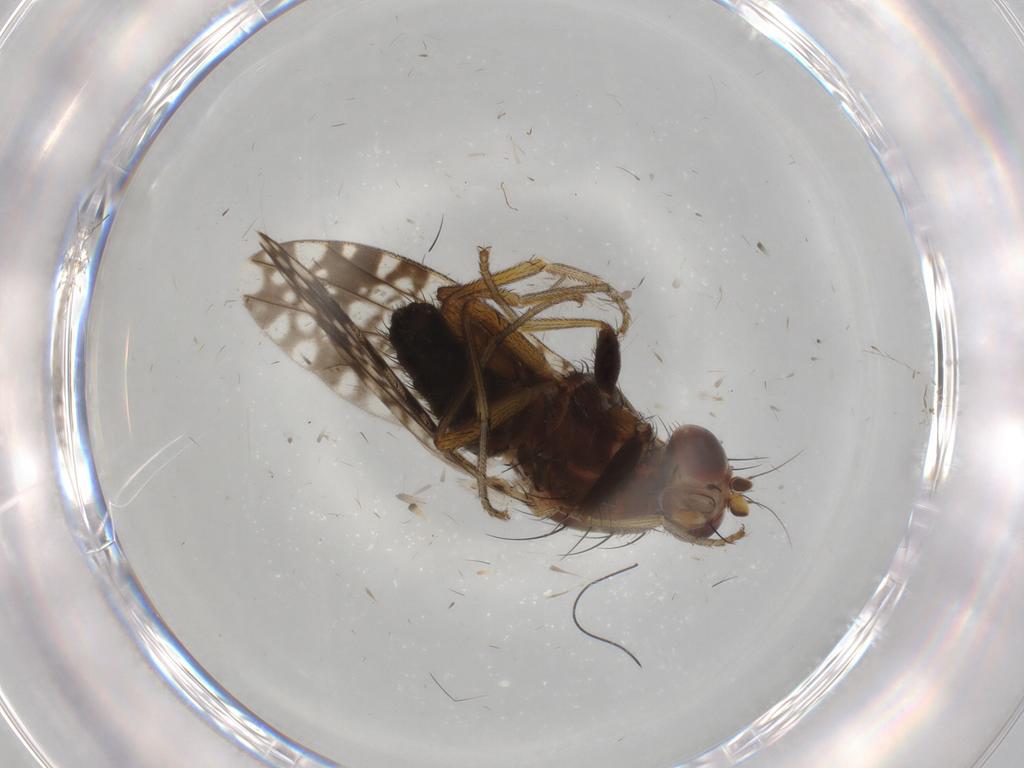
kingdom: Animalia
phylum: Arthropoda
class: Insecta
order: Diptera
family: Tephritidae
